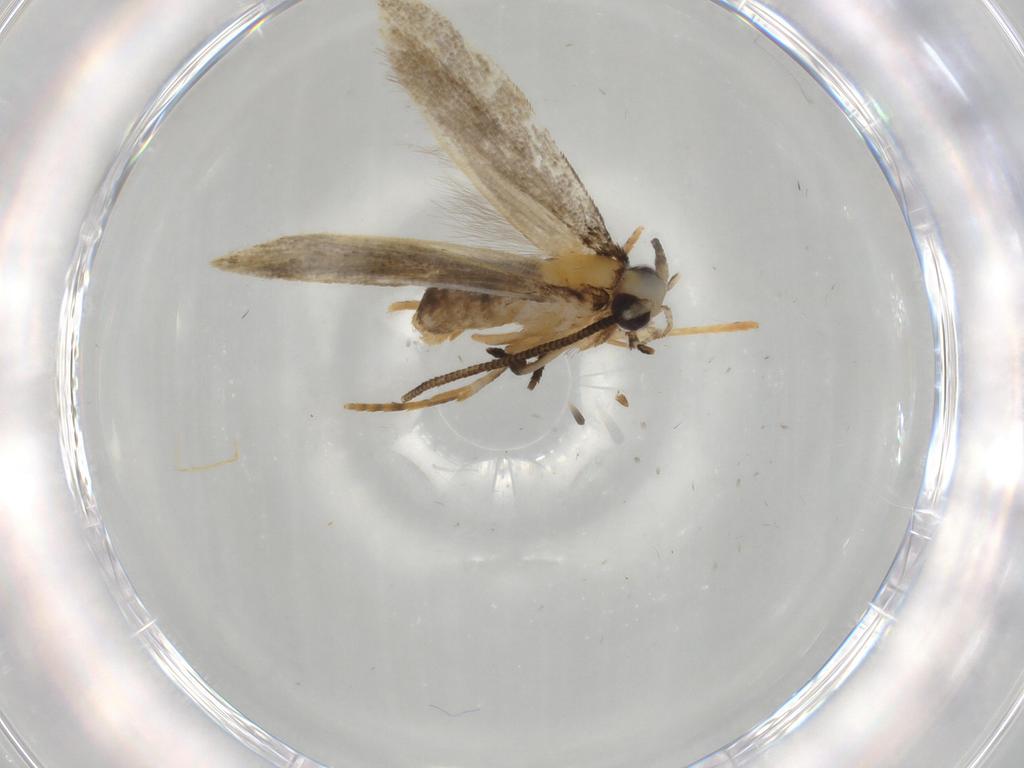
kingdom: Animalia
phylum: Arthropoda
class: Insecta
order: Lepidoptera
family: Tineidae
